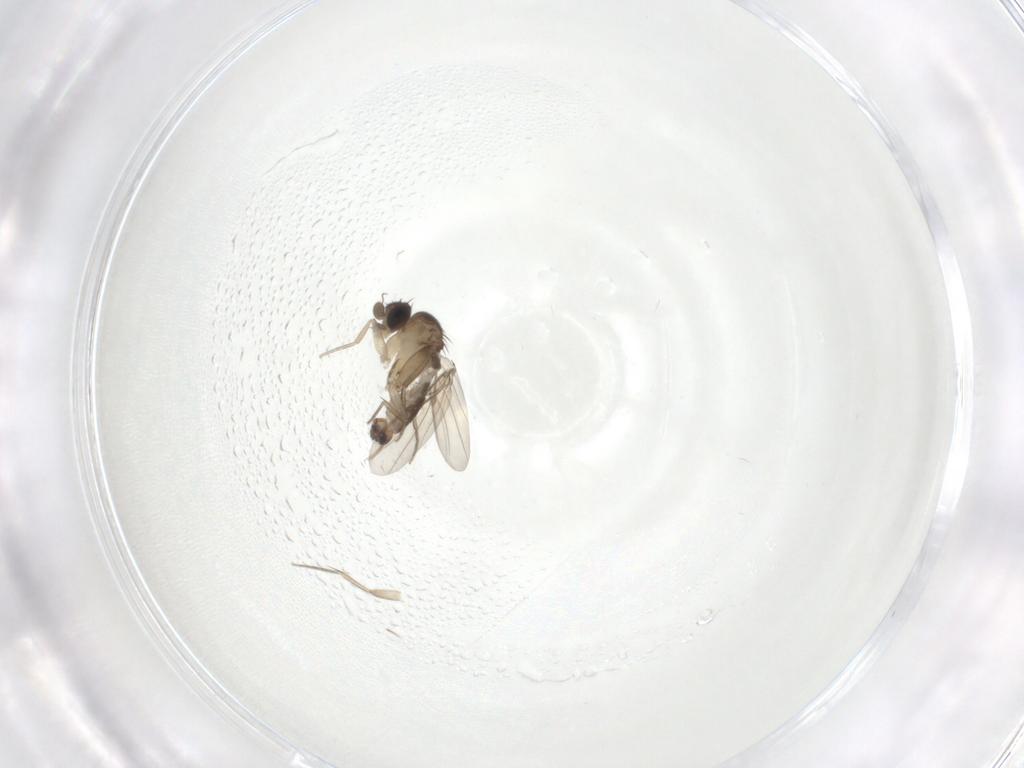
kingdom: Animalia
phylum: Arthropoda
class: Insecta
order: Diptera
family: Phoridae
